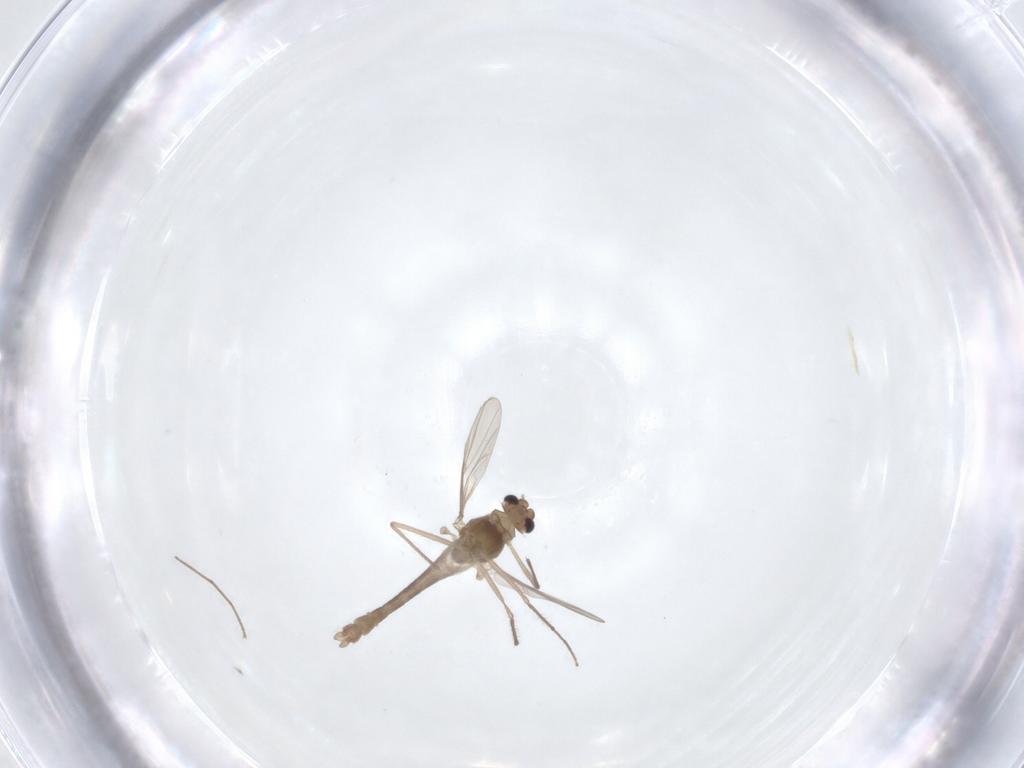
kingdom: Animalia
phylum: Arthropoda
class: Insecta
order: Diptera
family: Chironomidae
